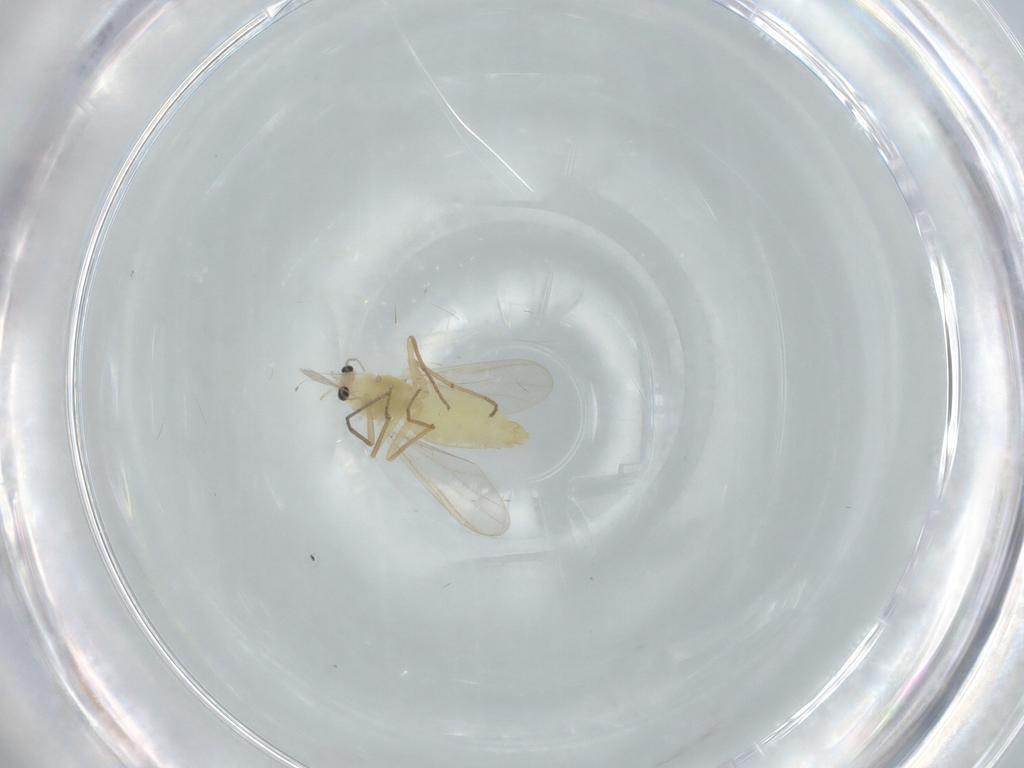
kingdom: Animalia
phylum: Arthropoda
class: Insecta
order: Diptera
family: Chironomidae
